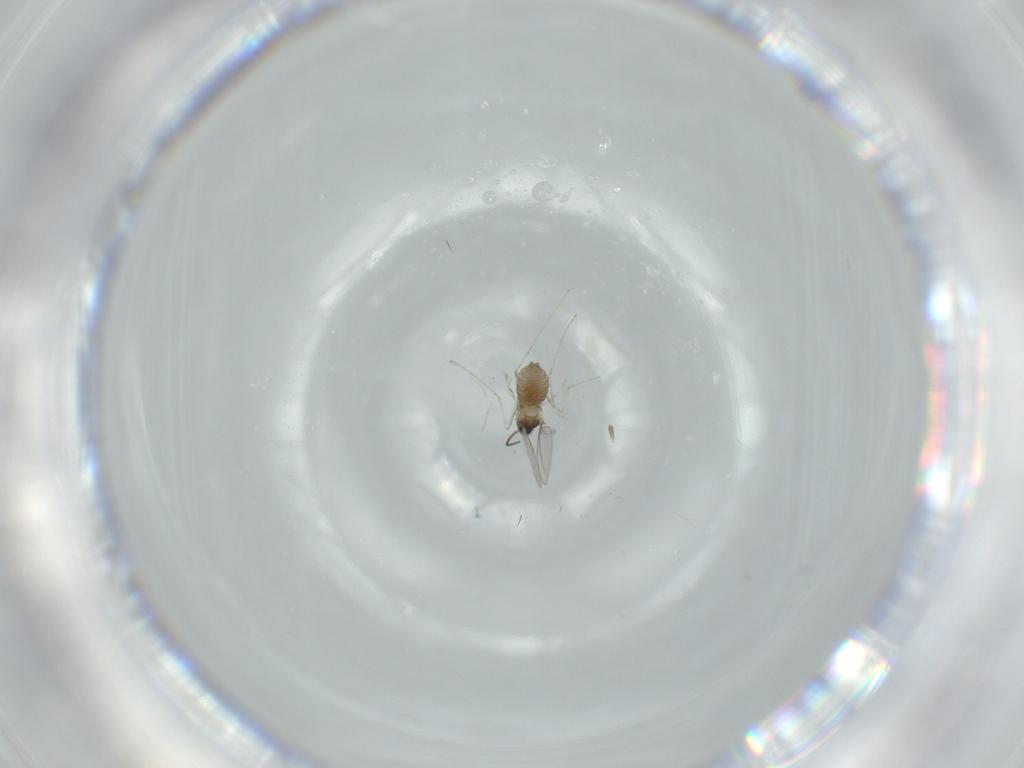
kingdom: Animalia
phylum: Arthropoda
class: Insecta
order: Diptera
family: Cecidomyiidae
